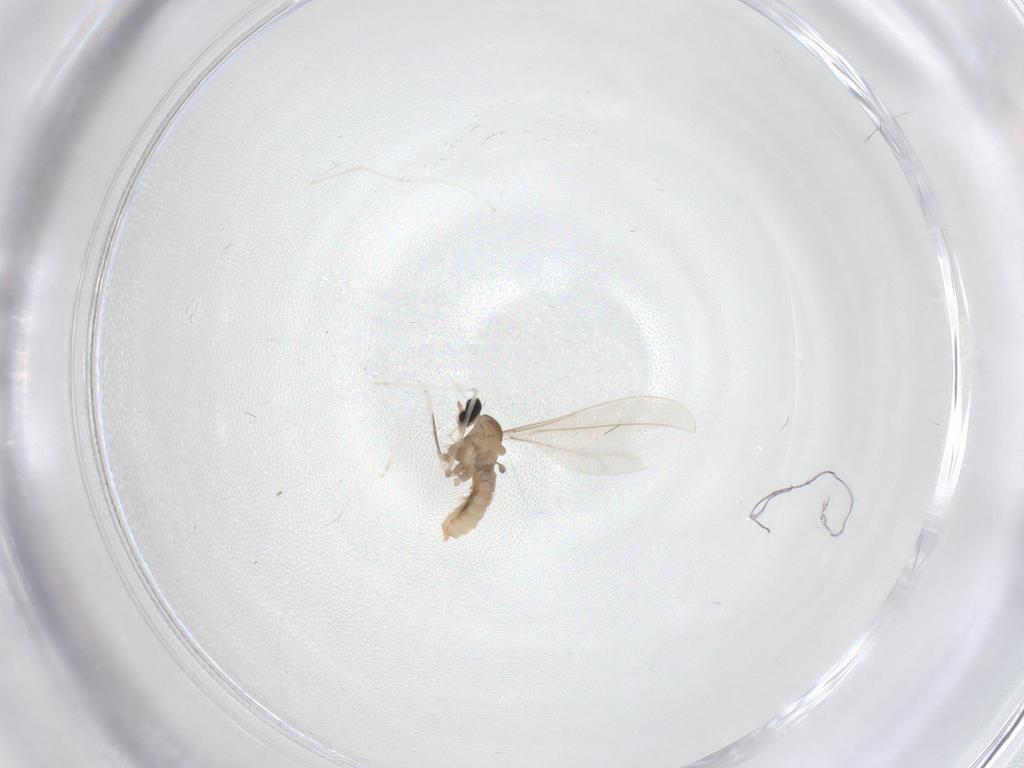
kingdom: Animalia
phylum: Arthropoda
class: Insecta
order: Diptera
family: Cecidomyiidae
